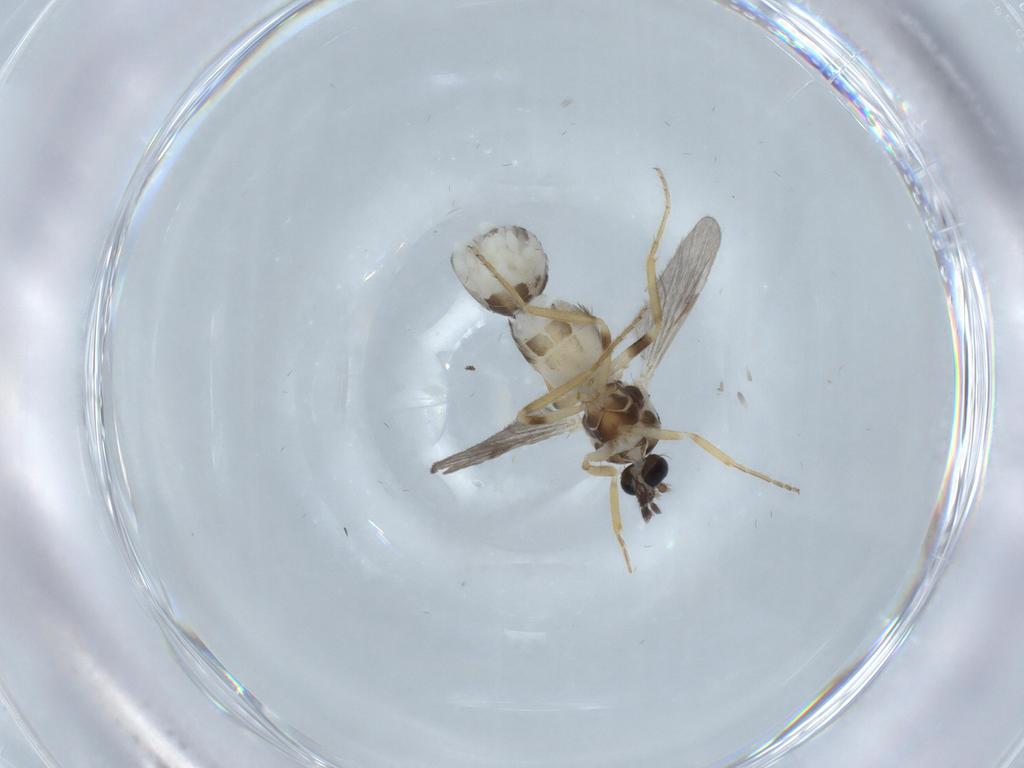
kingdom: Animalia
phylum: Arthropoda
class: Insecta
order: Diptera
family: Ceratopogonidae
